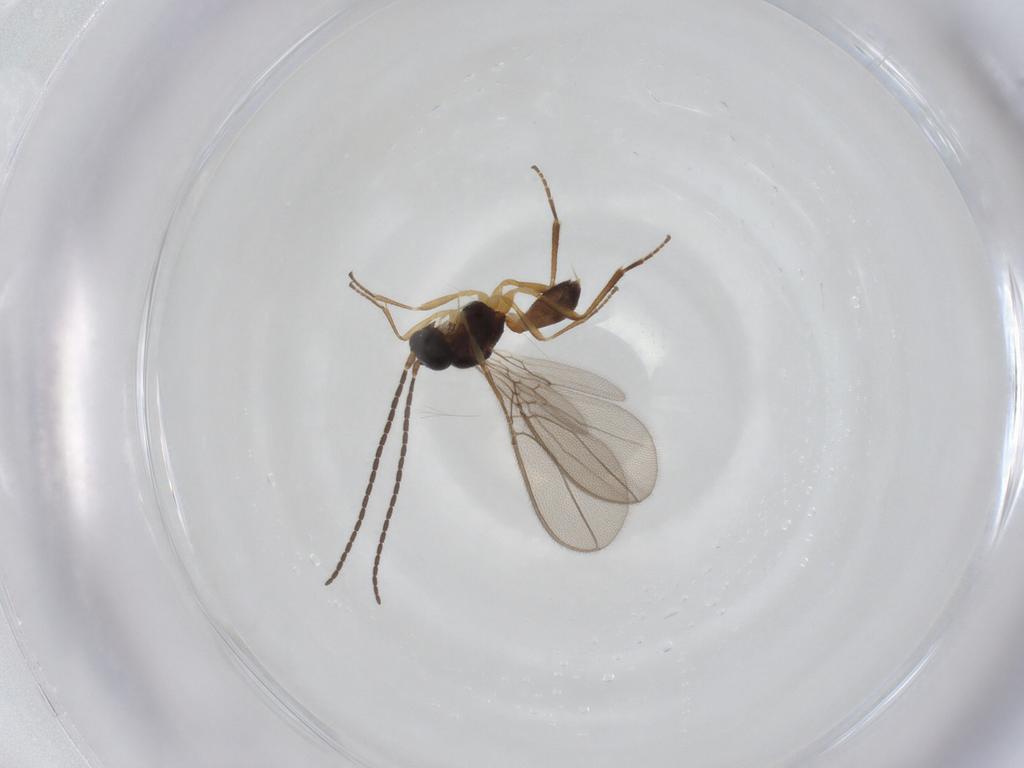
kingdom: Animalia
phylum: Arthropoda
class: Insecta
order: Hymenoptera
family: Braconidae
